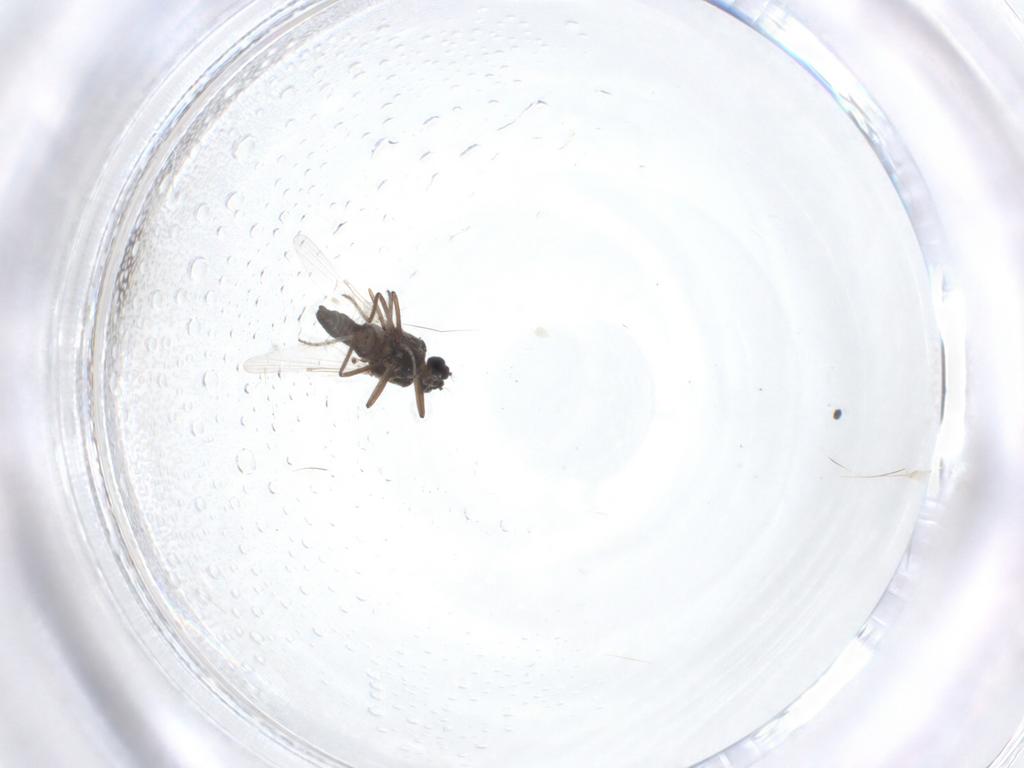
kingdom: Animalia
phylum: Arthropoda
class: Insecta
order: Diptera
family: Ceratopogonidae
